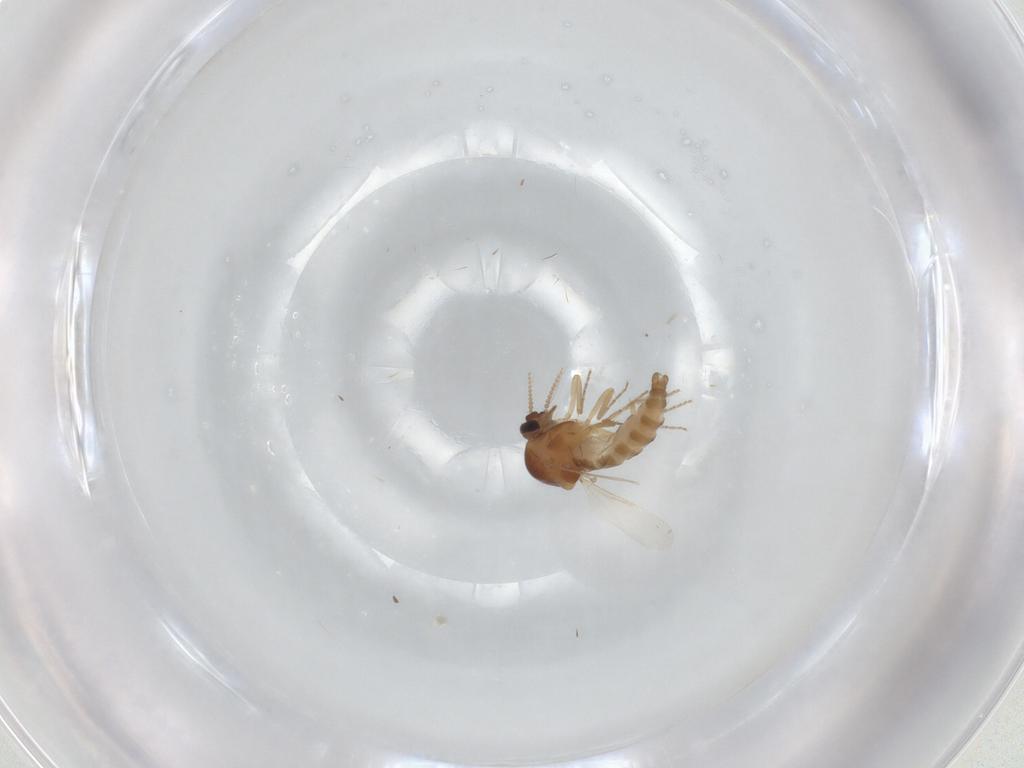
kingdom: Animalia
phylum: Arthropoda
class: Insecta
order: Diptera
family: Ceratopogonidae
